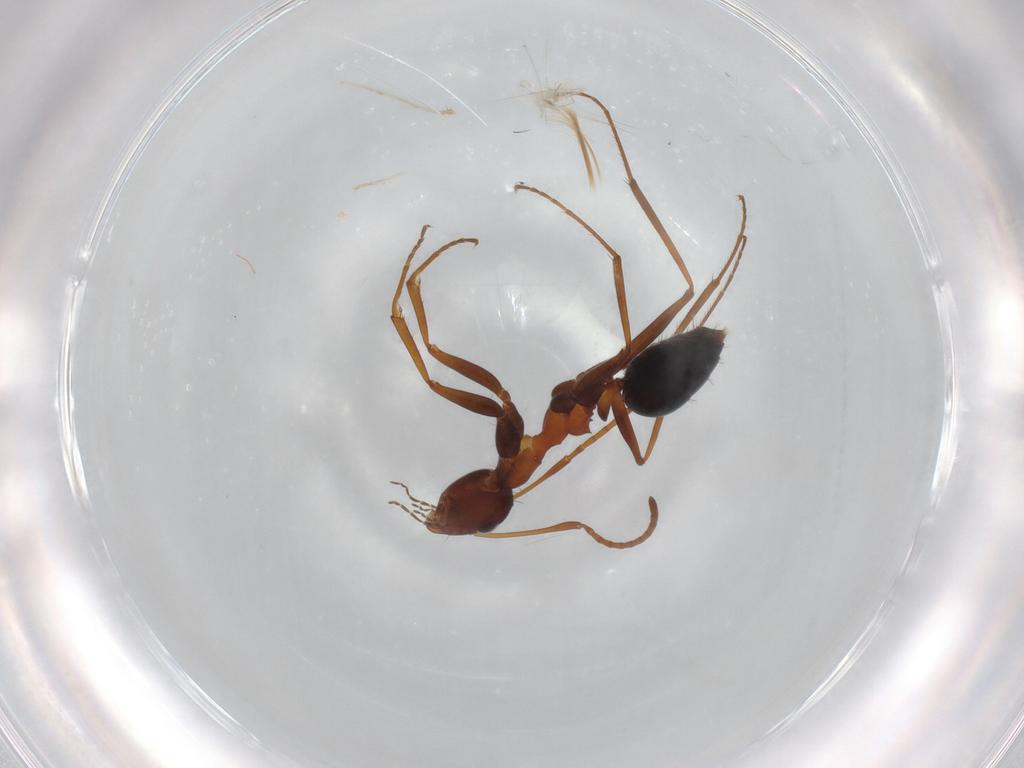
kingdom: Animalia
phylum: Arthropoda
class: Insecta
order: Hymenoptera
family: Formicidae
